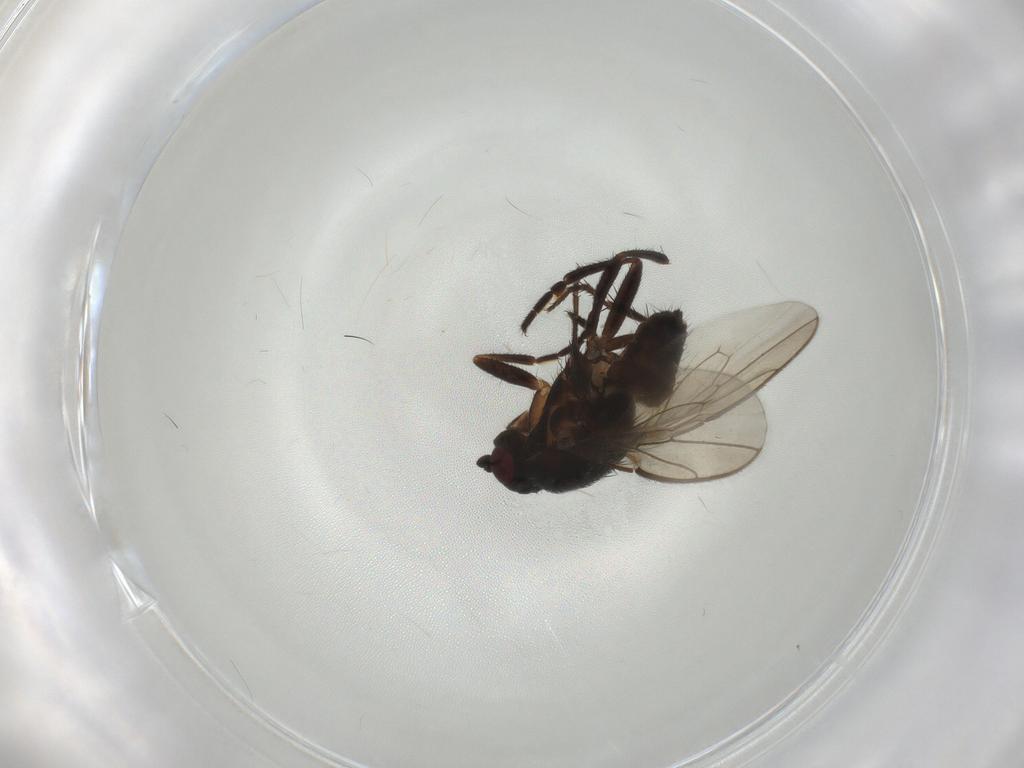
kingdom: Animalia
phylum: Arthropoda
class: Insecta
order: Diptera
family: Sphaeroceridae
